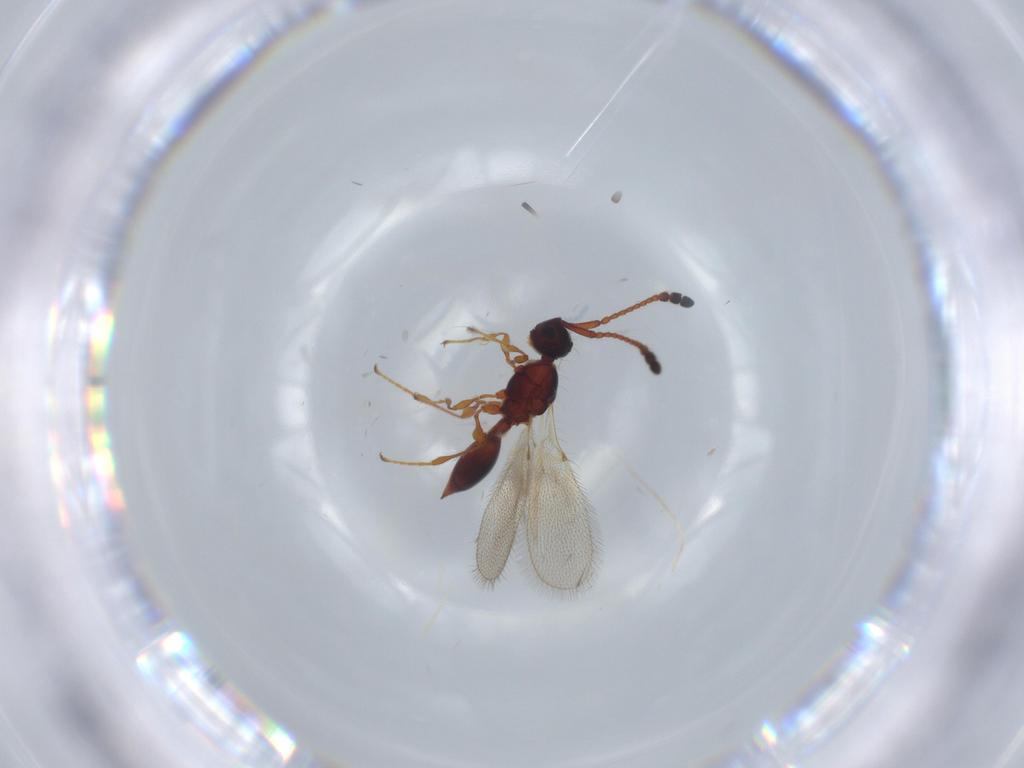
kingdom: Animalia
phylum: Arthropoda
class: Insecta
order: Hymenoptera
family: Diapriidae
